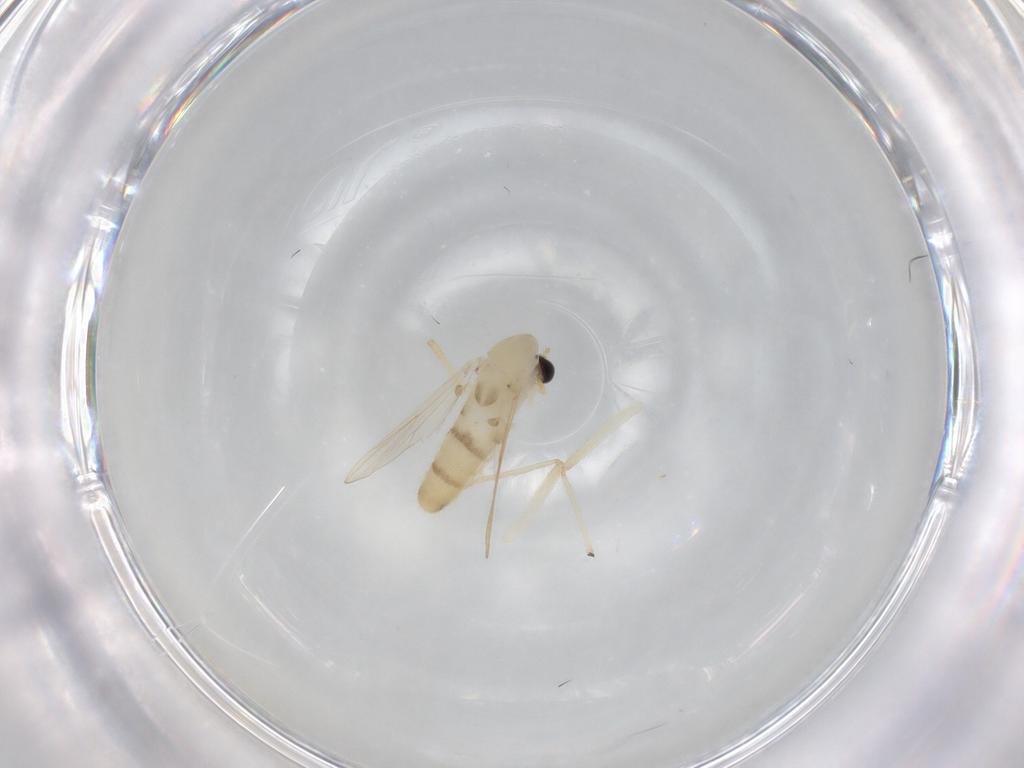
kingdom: Animalia
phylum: Arthropoda
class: Insecta
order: Diptera
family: Chironomidae
